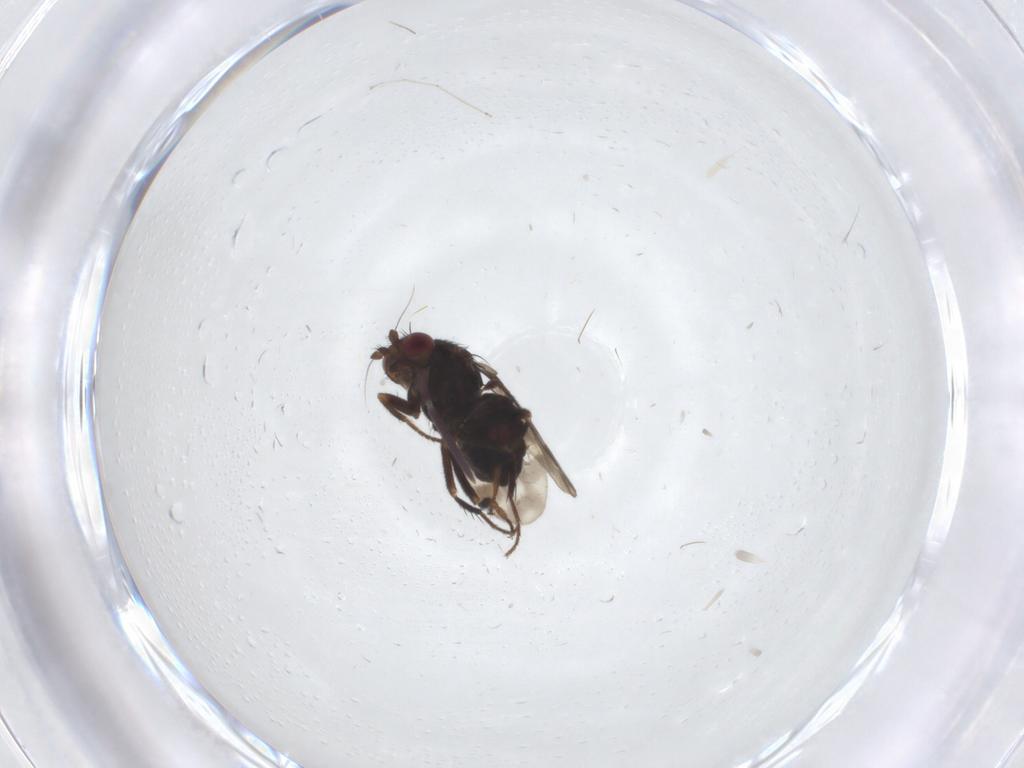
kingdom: Animalia
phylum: Arthropoda
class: Insecta
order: Diptera
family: Sphaeroceridae
